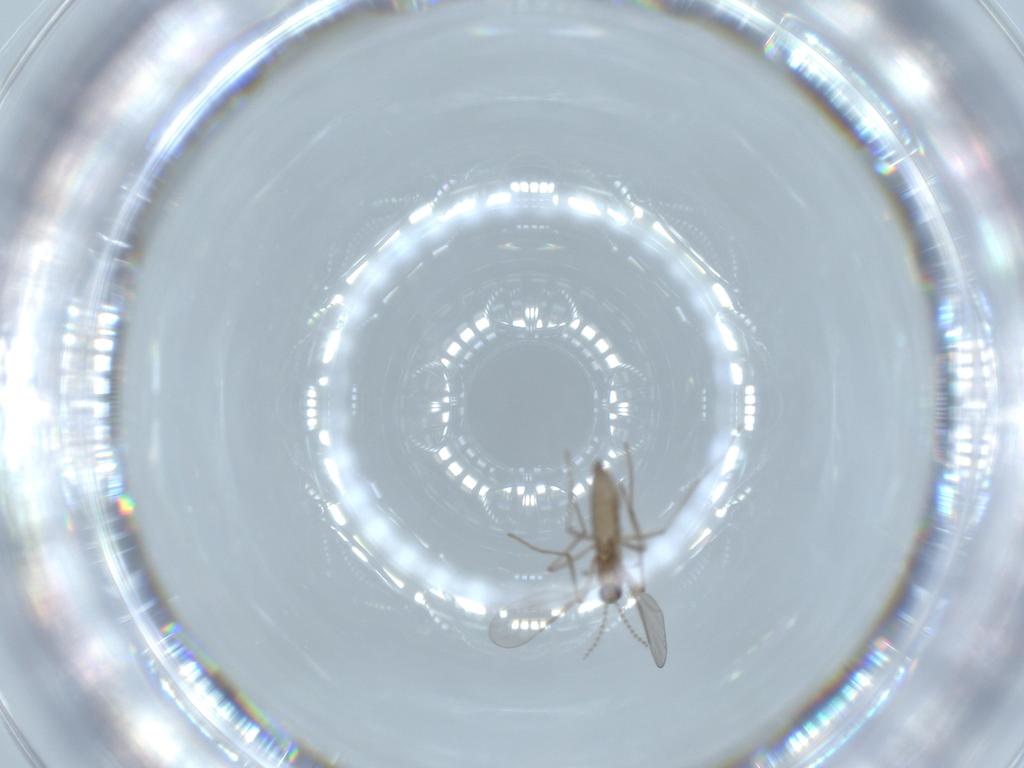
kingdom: Animalia
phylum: Arthropoda
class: Insecta
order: Diptera
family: Cecidomyiidae
